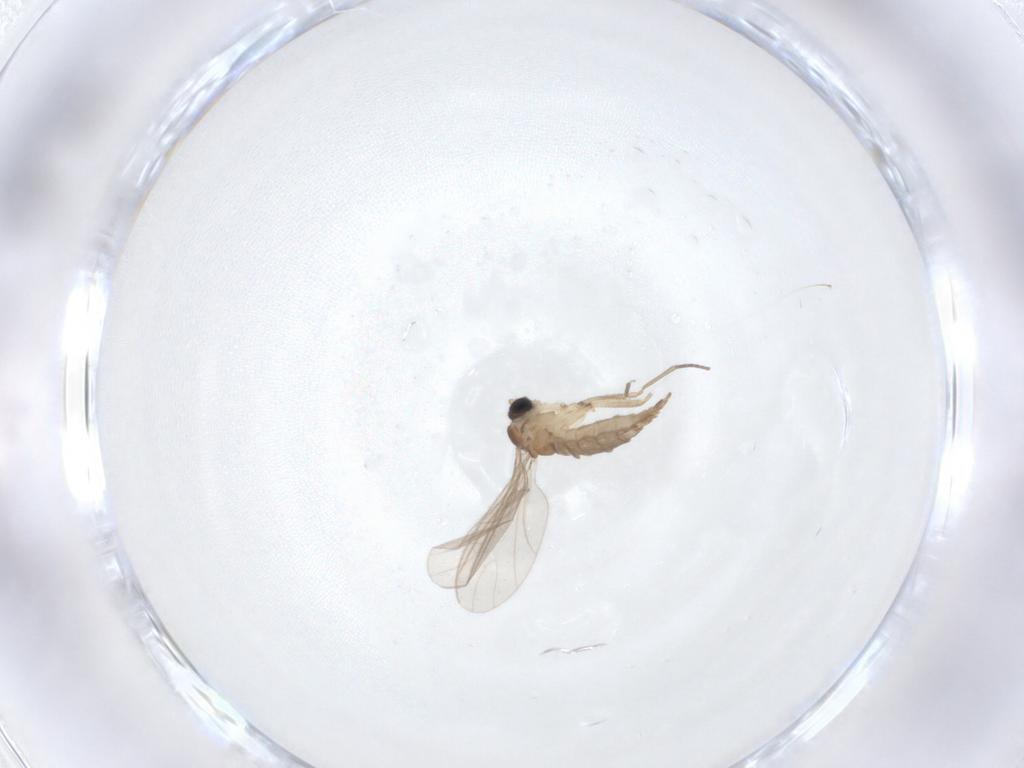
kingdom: Animalia
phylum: Arthropoda
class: Insecta
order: Diptera
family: Sciaridae
